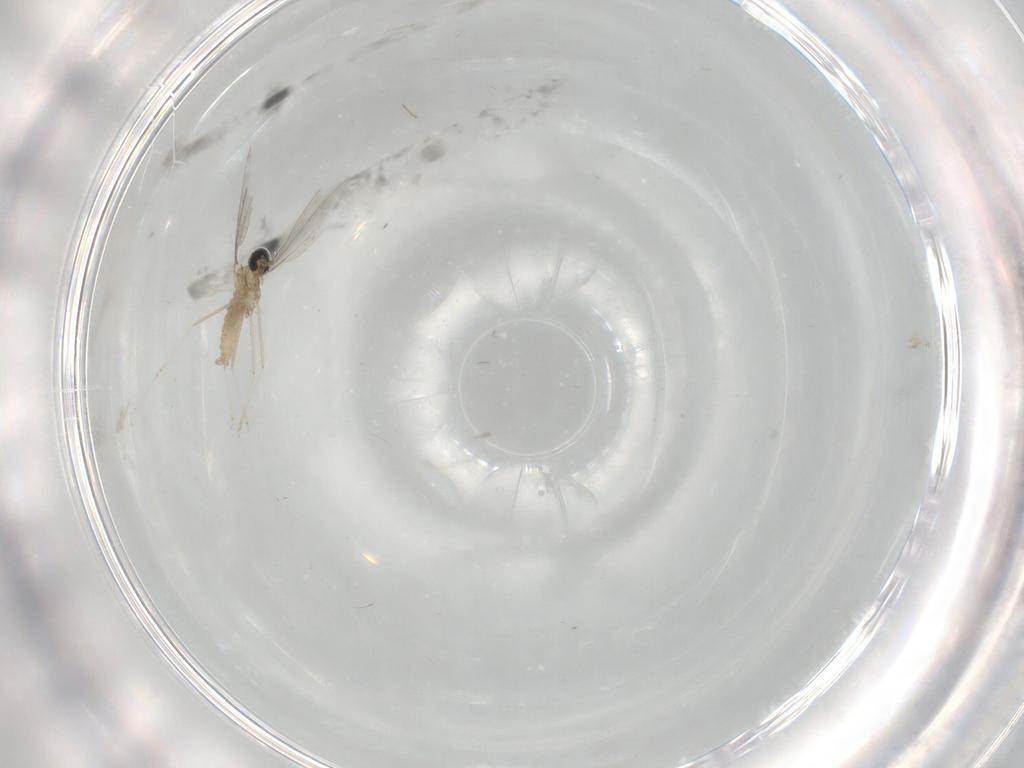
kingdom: Animalia
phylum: Arthropoda
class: Insecta
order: Diptera
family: Cecidomyiidae
